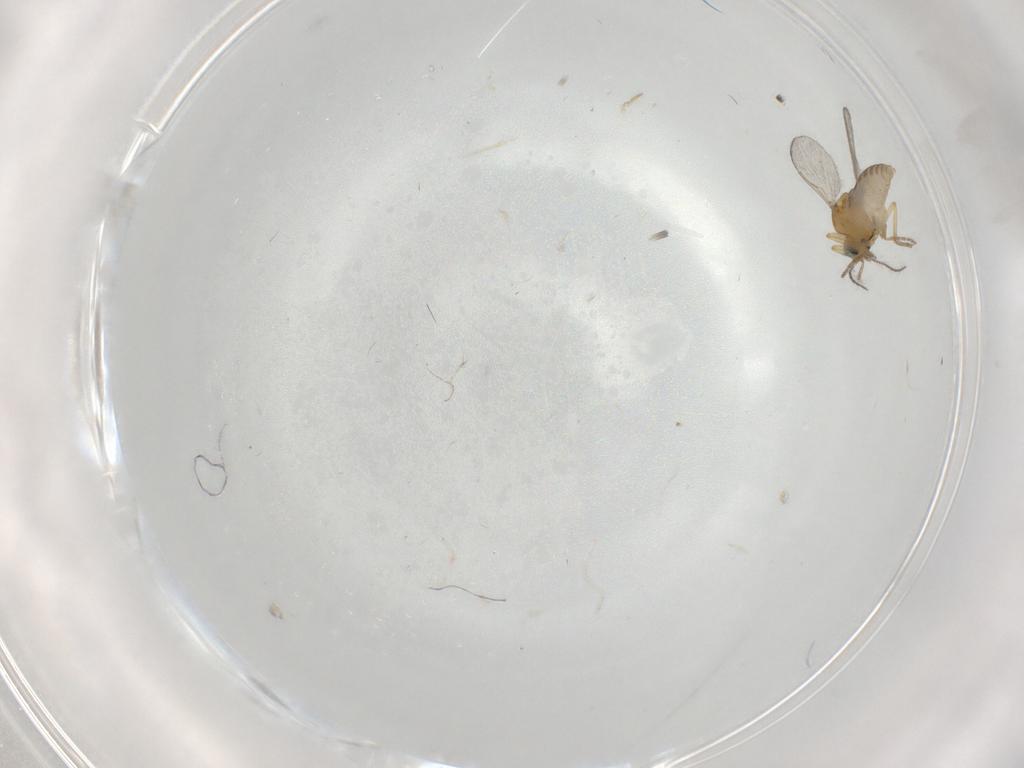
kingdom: Animalia
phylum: Arthropoda
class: Insecta
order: Diptera
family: Ceratopogonidae
